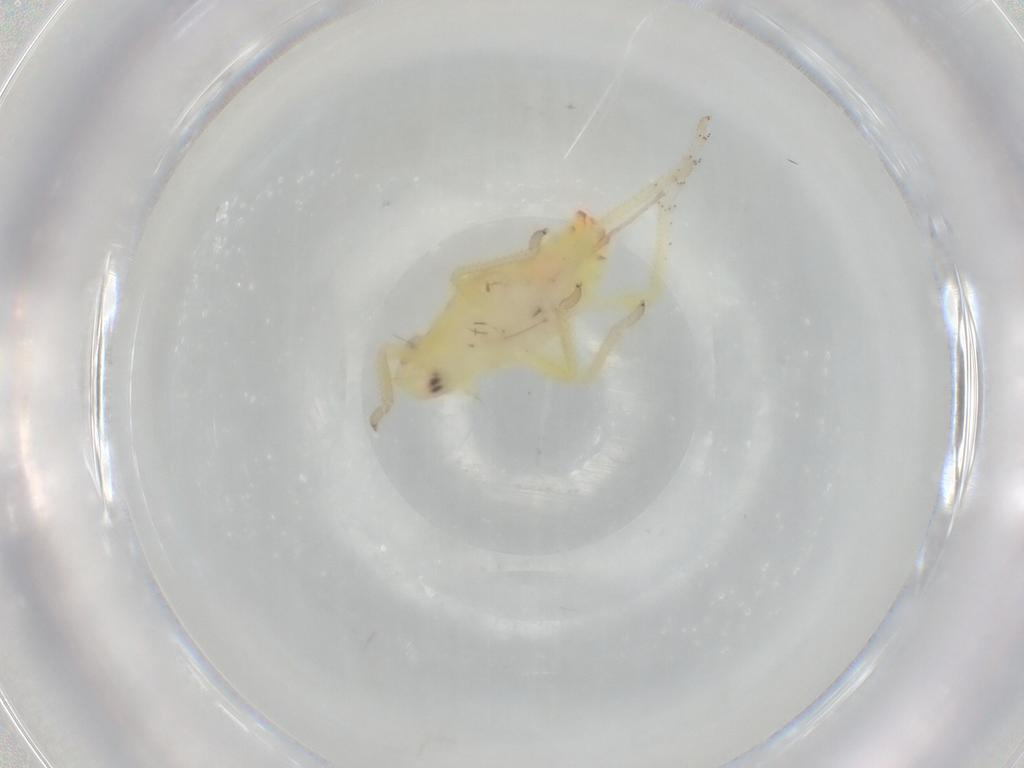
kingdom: Animalia
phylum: Arthropoda
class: Insecta
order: Hemiptera
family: Tropiduchidae
